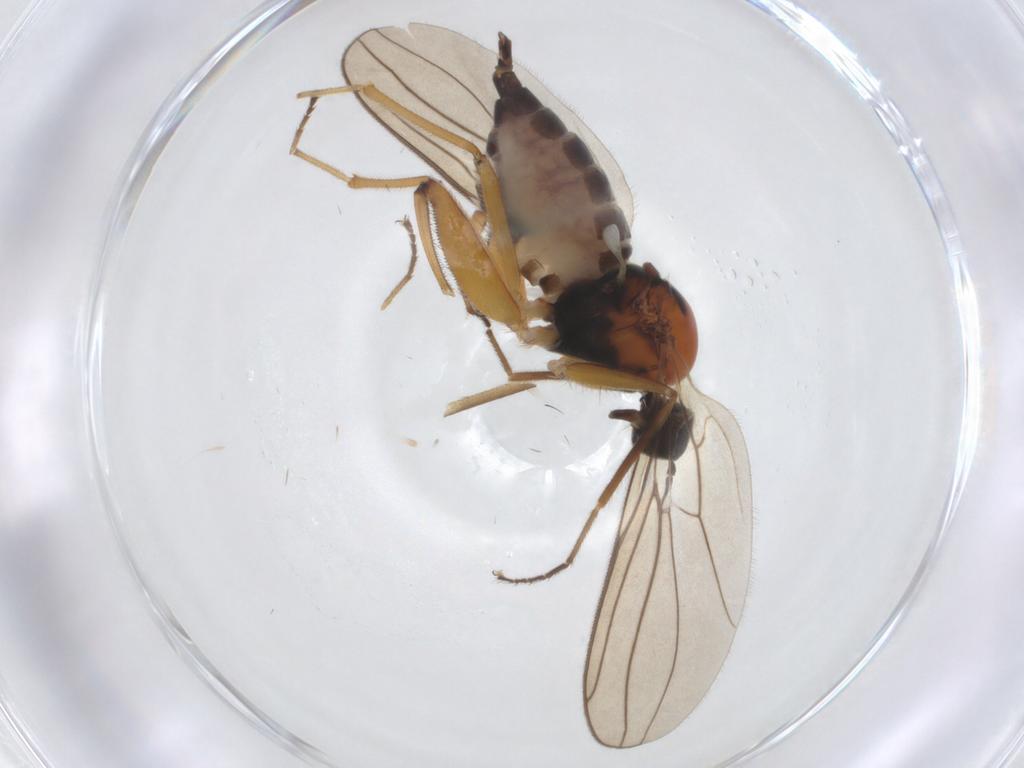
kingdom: Animalia
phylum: Arthropoda
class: Insecta
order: Diptera
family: Hybotidae
